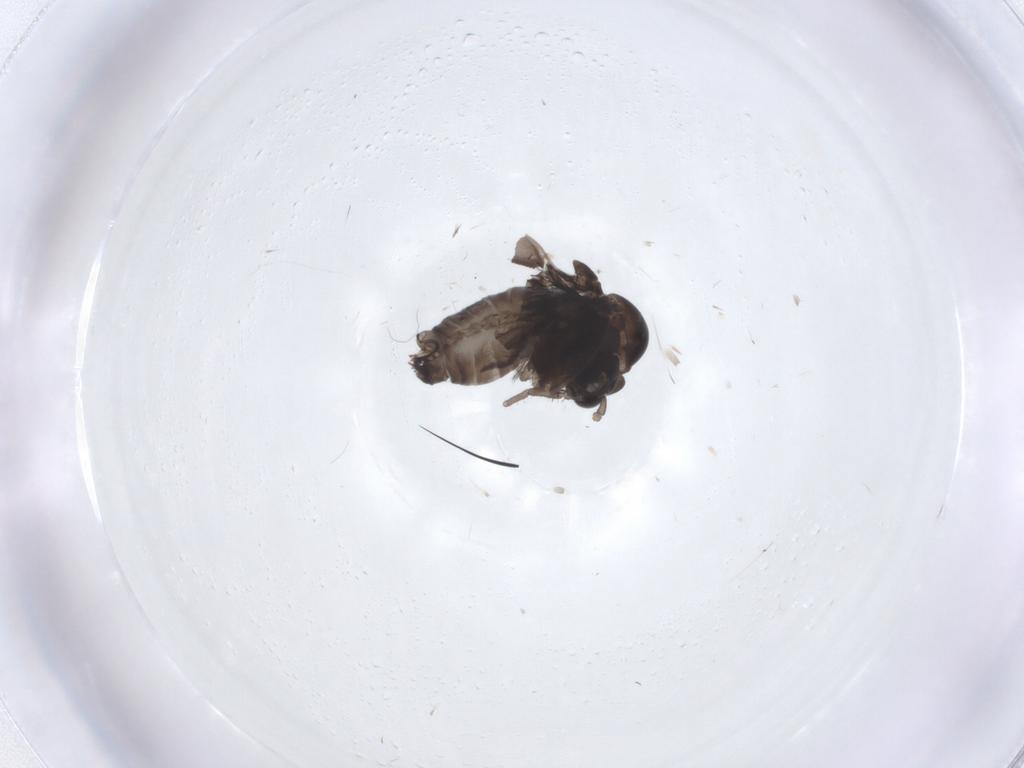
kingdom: Animalia
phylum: Arthropoda
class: Insecta
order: Diptera
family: Psychodidae
